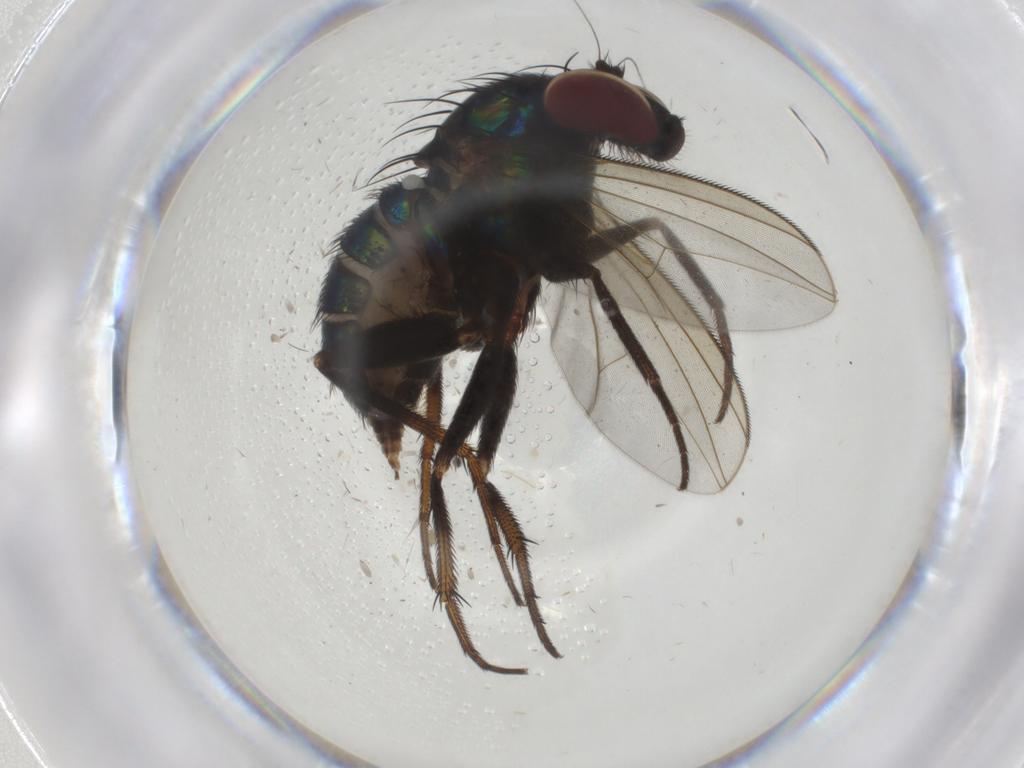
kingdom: Animalia
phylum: Arthropoda
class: Insecta
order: Diptera
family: Dolichopodidae
